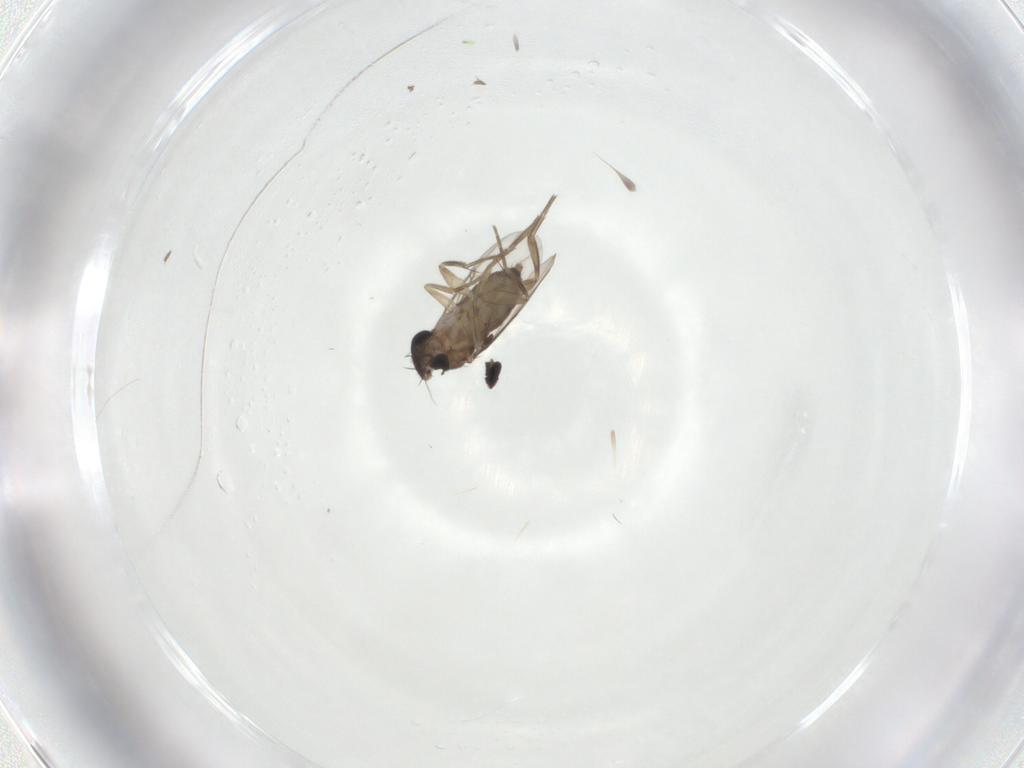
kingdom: Animalia
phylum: Arthropoda
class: Insecta
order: Diptera
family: Phoridae
